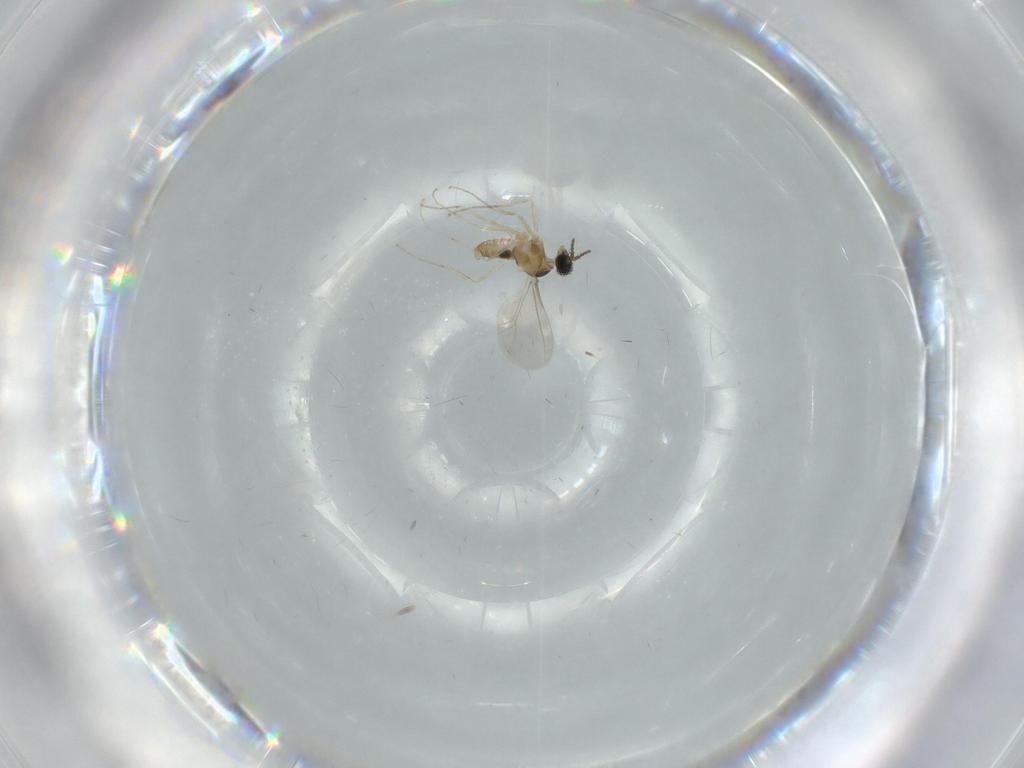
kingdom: Animalia
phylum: Arthropoda
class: Insecta
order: Diptera
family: Cecidomyiidae
